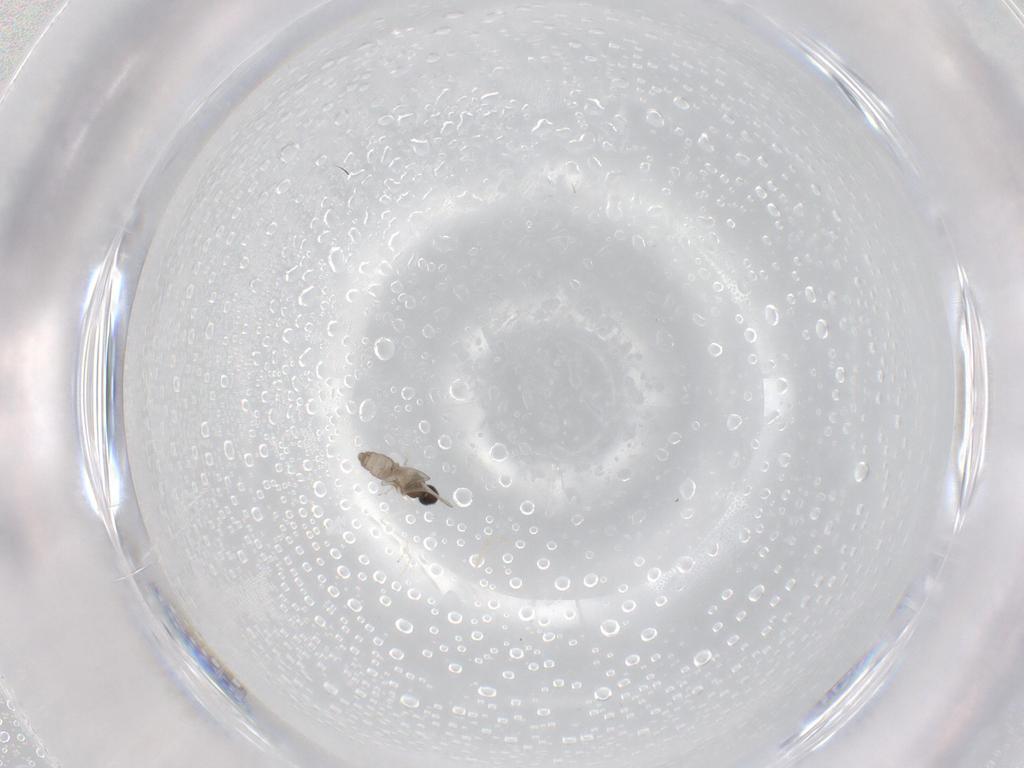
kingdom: Animalia
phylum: Arthropoda
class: Insecta
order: Diptera
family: Cecidomyiidae
